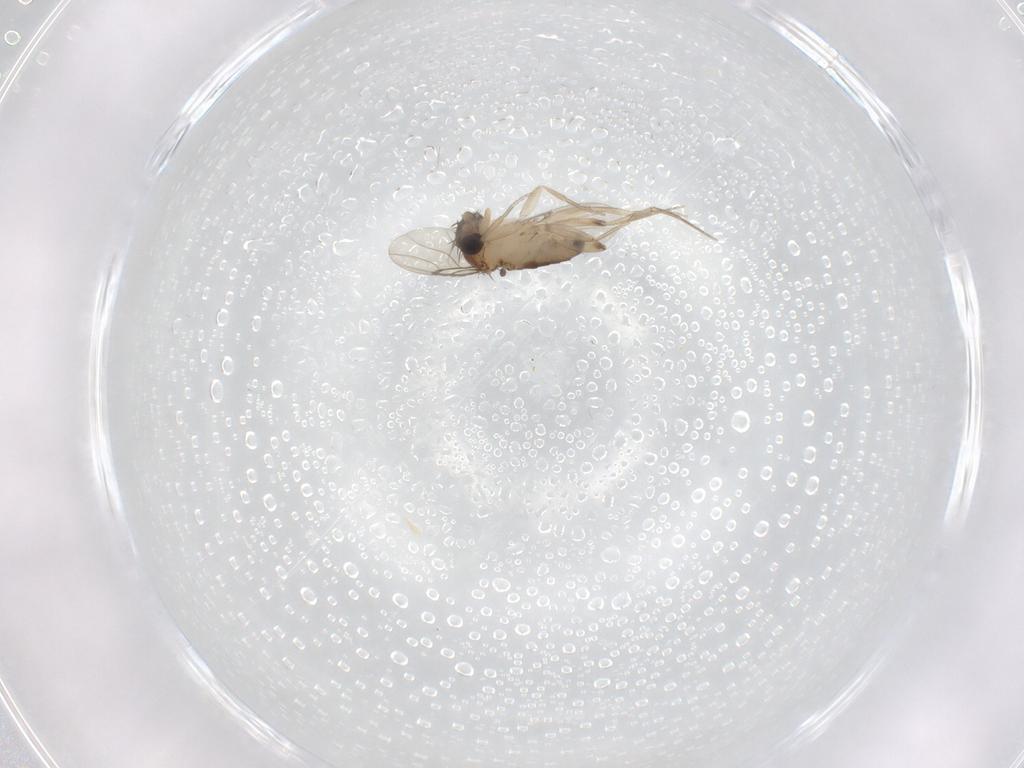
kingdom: Animalia
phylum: Arthropoda
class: Insecta
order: Diptera
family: Phoridae
